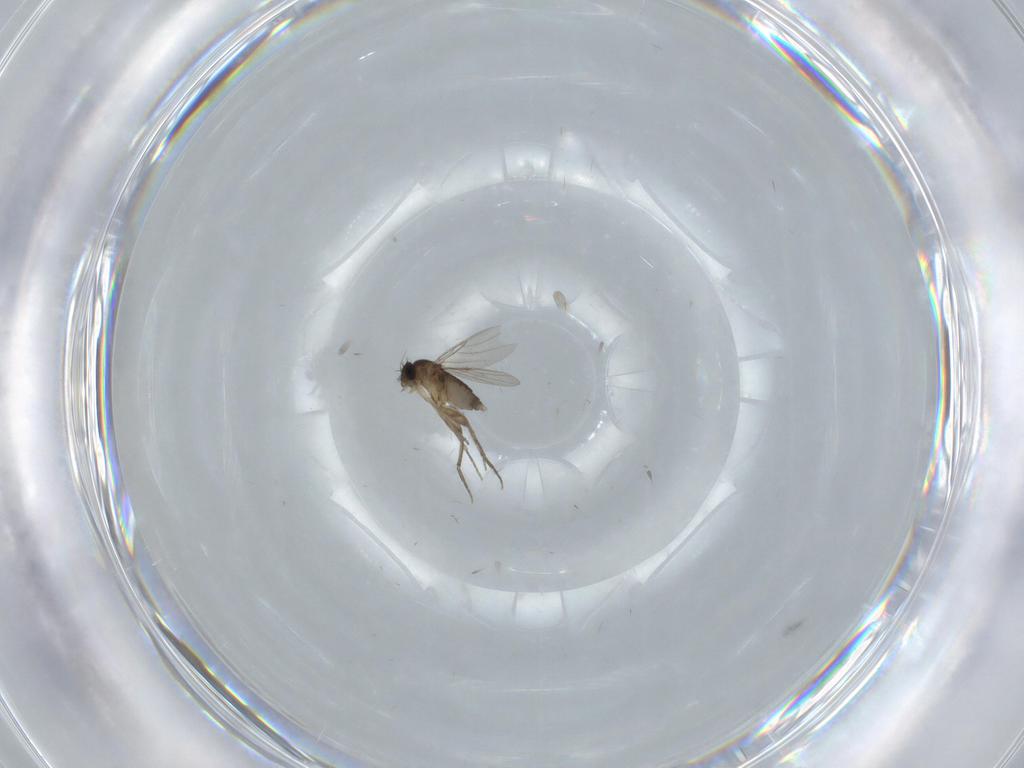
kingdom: Animalia
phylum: Arthropoda
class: Insecta
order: Diptera
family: Phoridae
